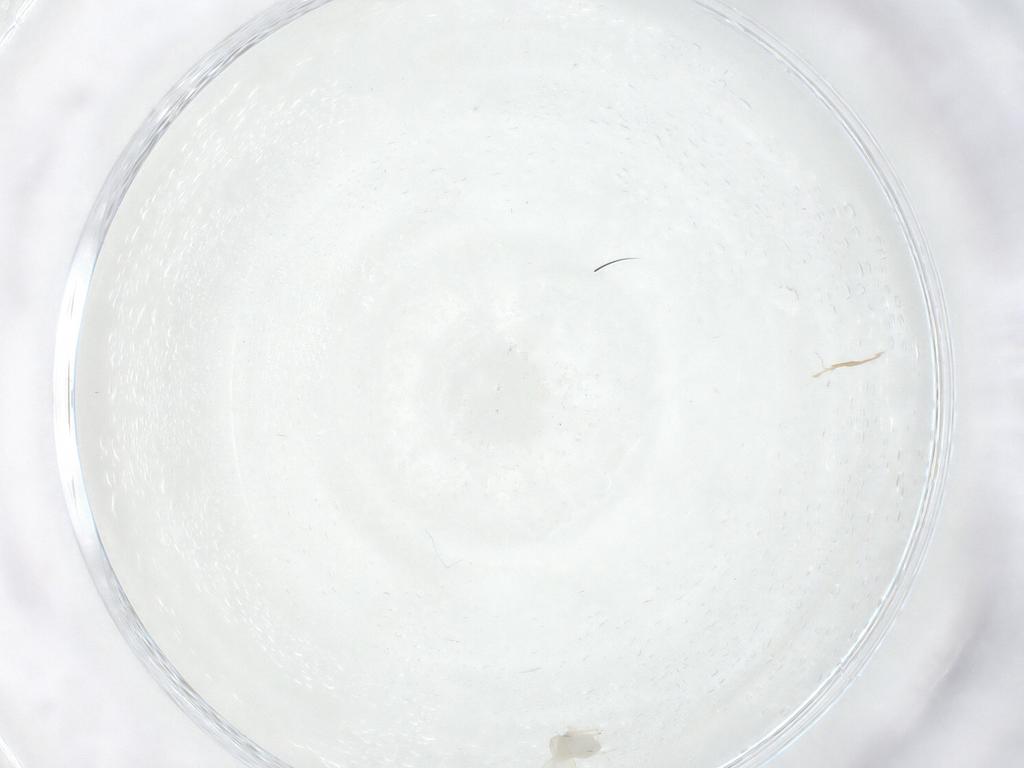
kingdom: Animalia
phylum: Arthropoda
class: Insecta
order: Hemiptera
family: Aleyrodidae
